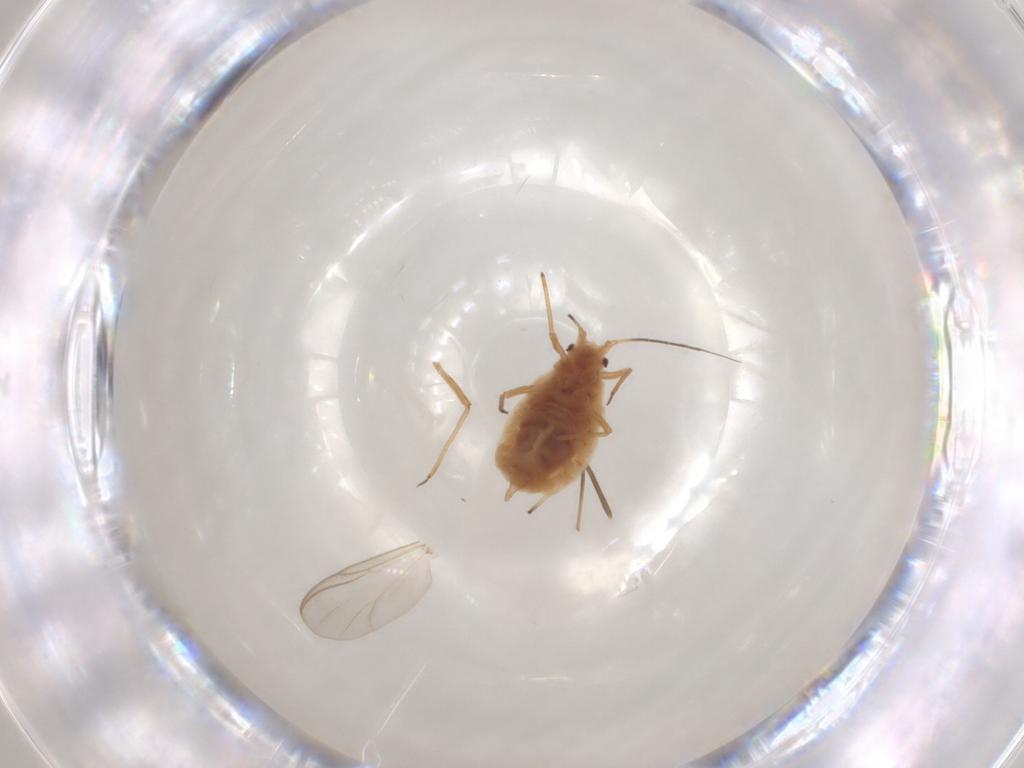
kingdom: Animalia
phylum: Arthropoda
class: Insecta
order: Hemiptera
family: Aphididae
